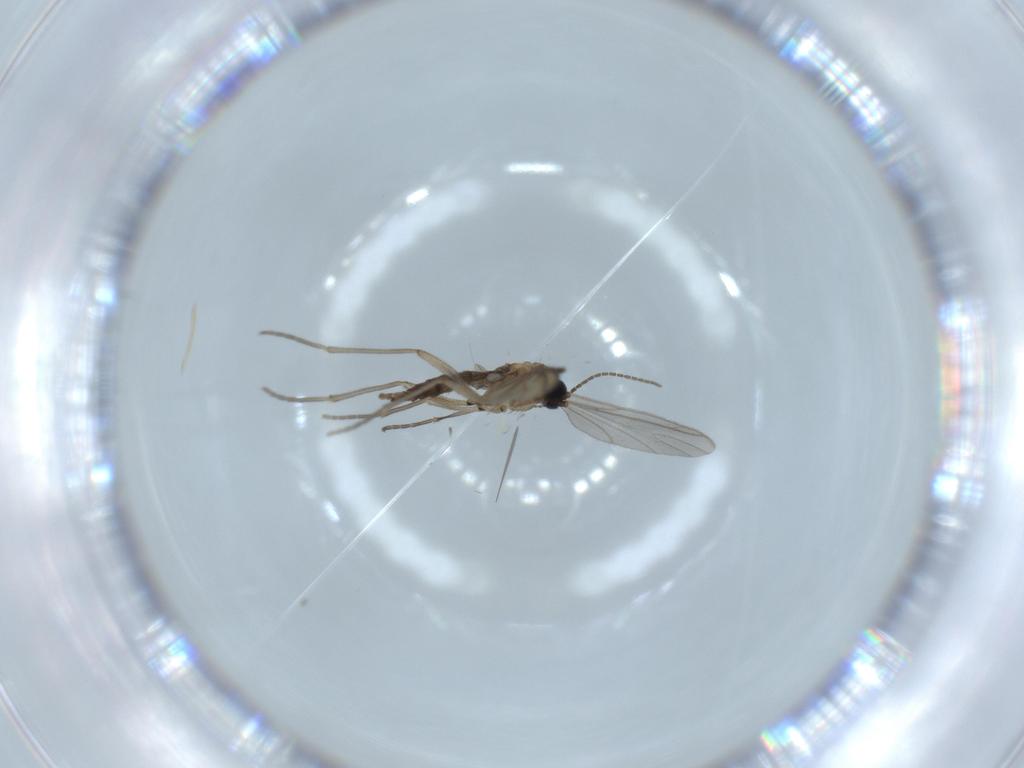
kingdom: Animalia
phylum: Arthropoda
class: Insecta
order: Diptera
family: Sciaridae
